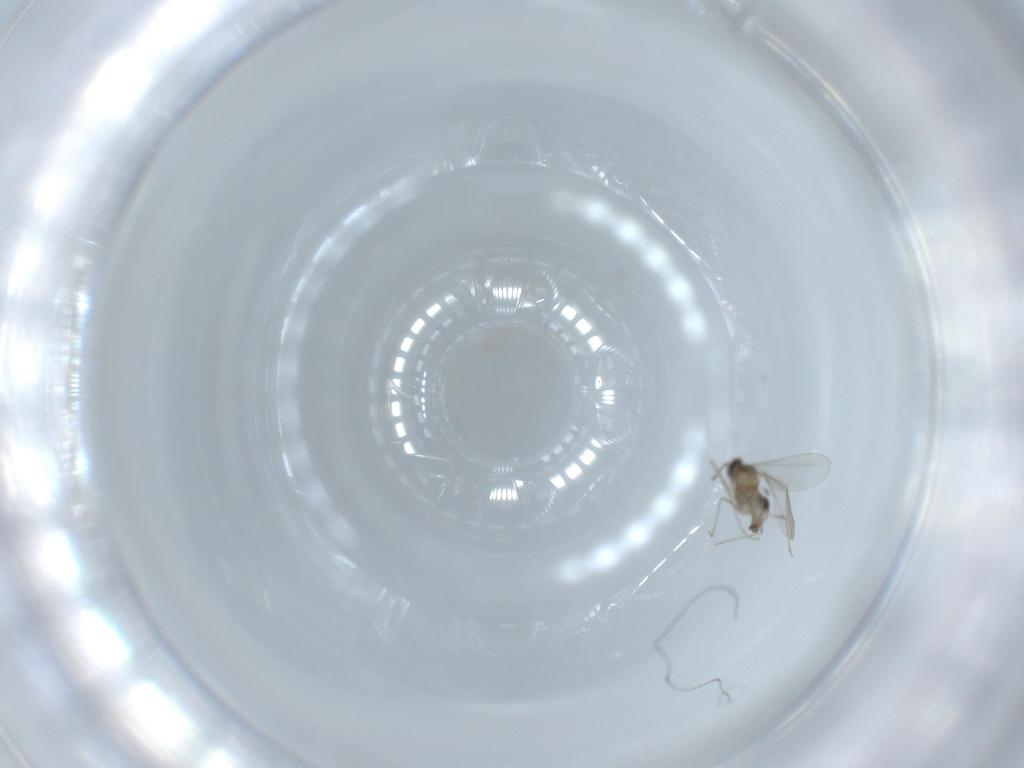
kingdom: Animalia
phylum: Arthropoda
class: Insecta
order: Diptera
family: Cecidomyiidae
